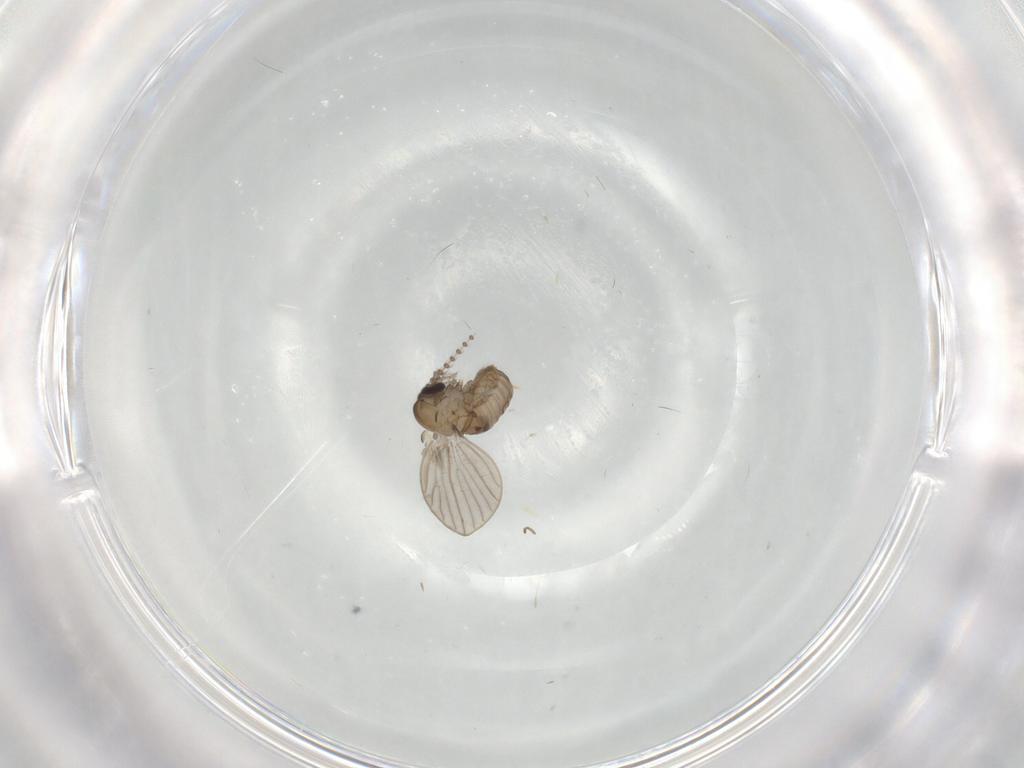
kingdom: Animalia
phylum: Arthropoda
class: Insecta
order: Diptera
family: Psychodidae
